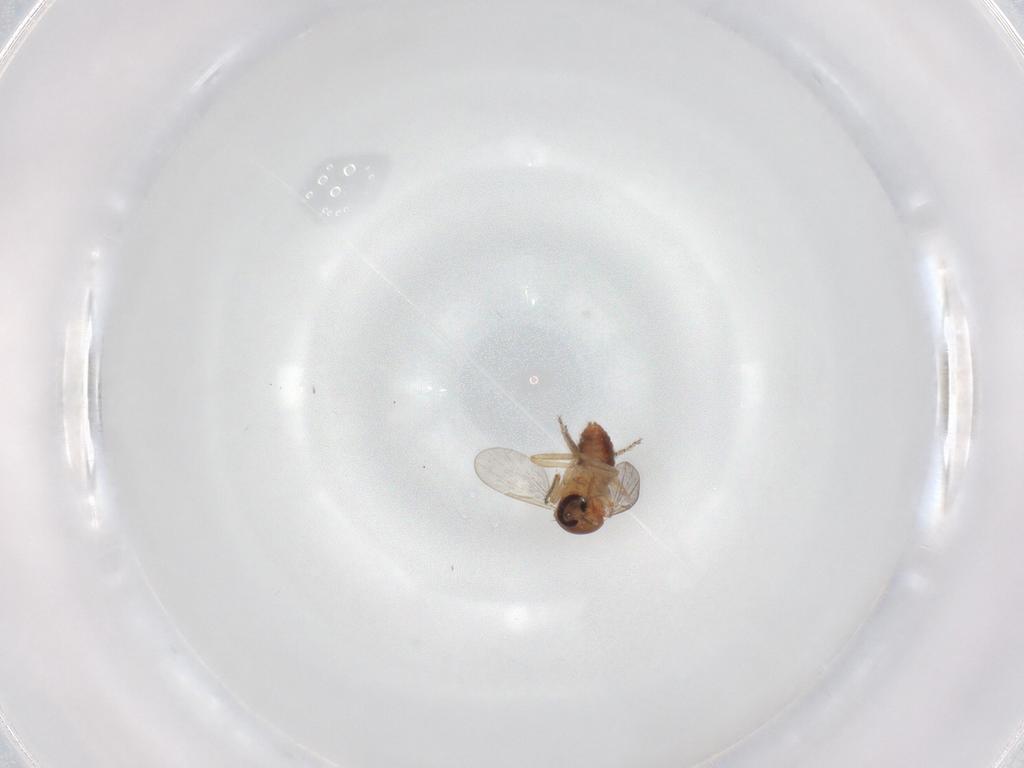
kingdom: Animalia
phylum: Arthropoda
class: Insecta
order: Diptera
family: Ceratopogonidae
